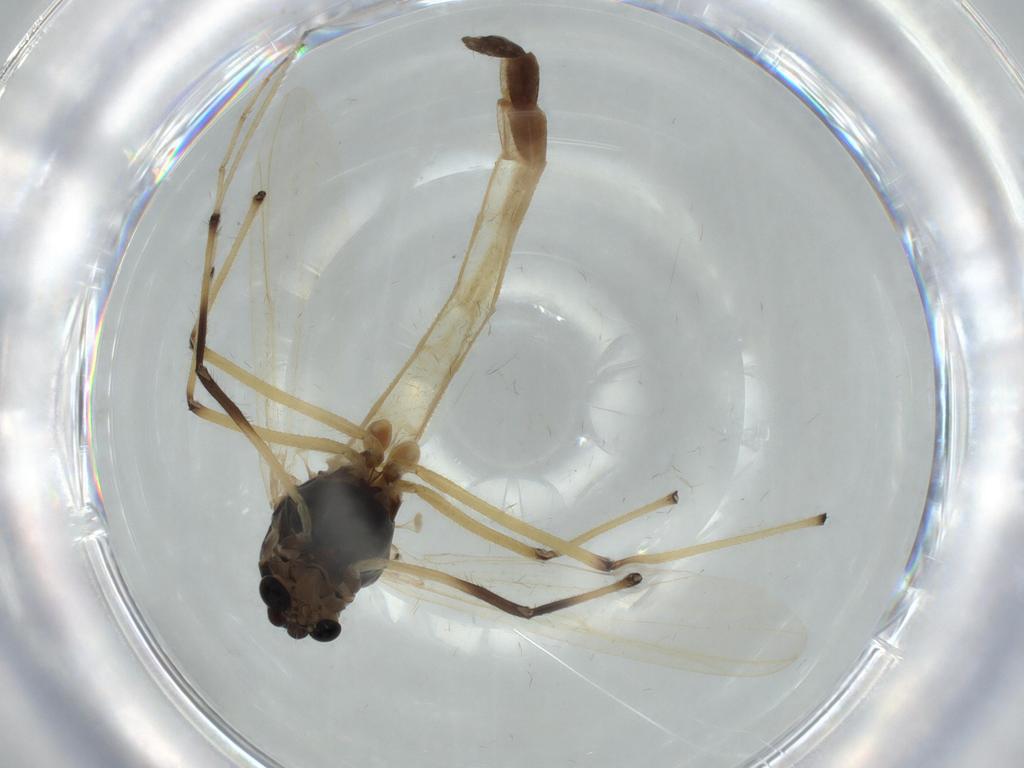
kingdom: Animalia
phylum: Arthropoda
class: Insecta
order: Diptera
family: Chironomidae
